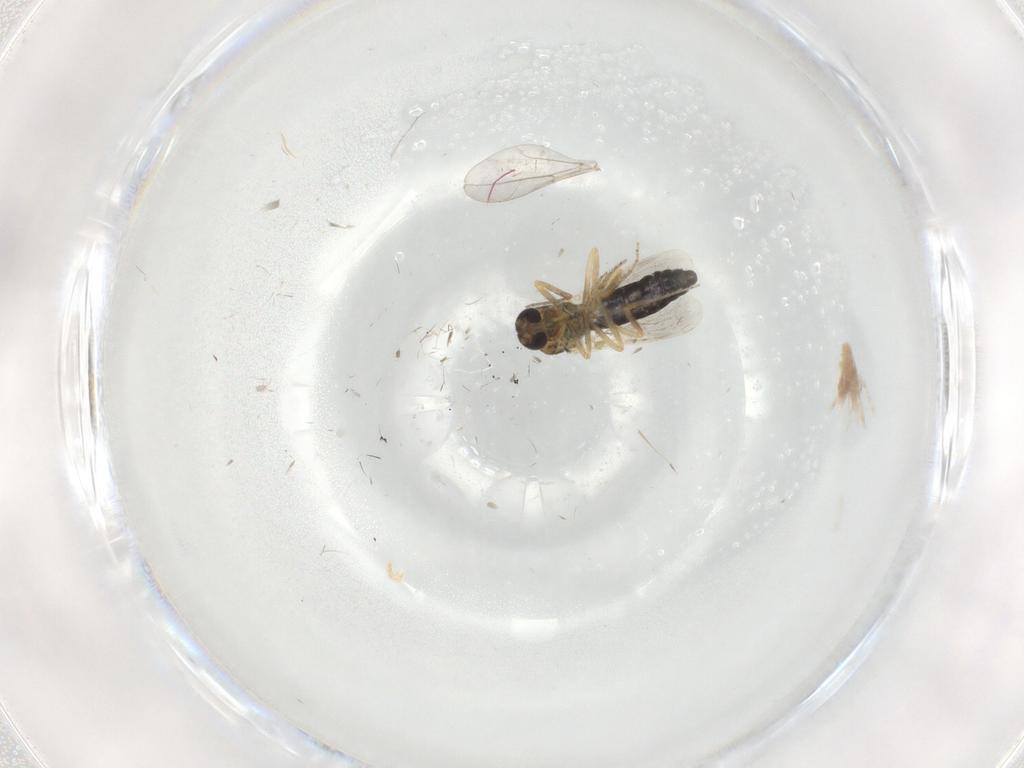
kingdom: Animalia
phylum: Arthropoda
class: Insecta
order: Diptera
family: Ceratopogonidae
